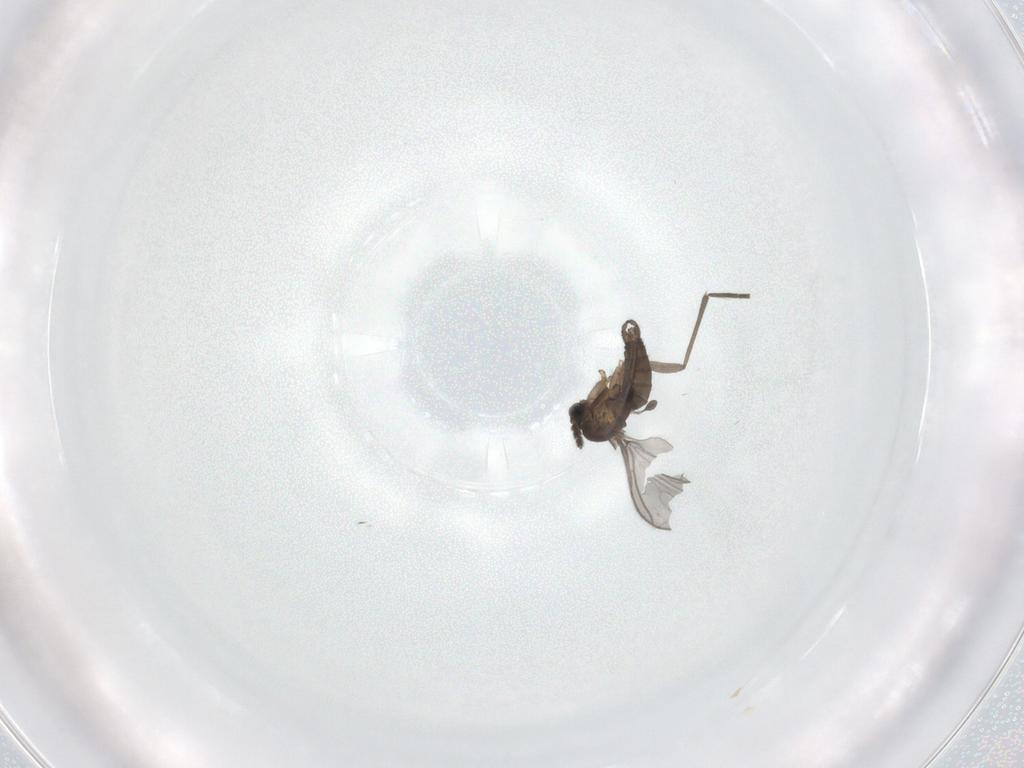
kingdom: Animalia
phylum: Arthropoda
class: Insecta
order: Diptera
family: Sciaridae
